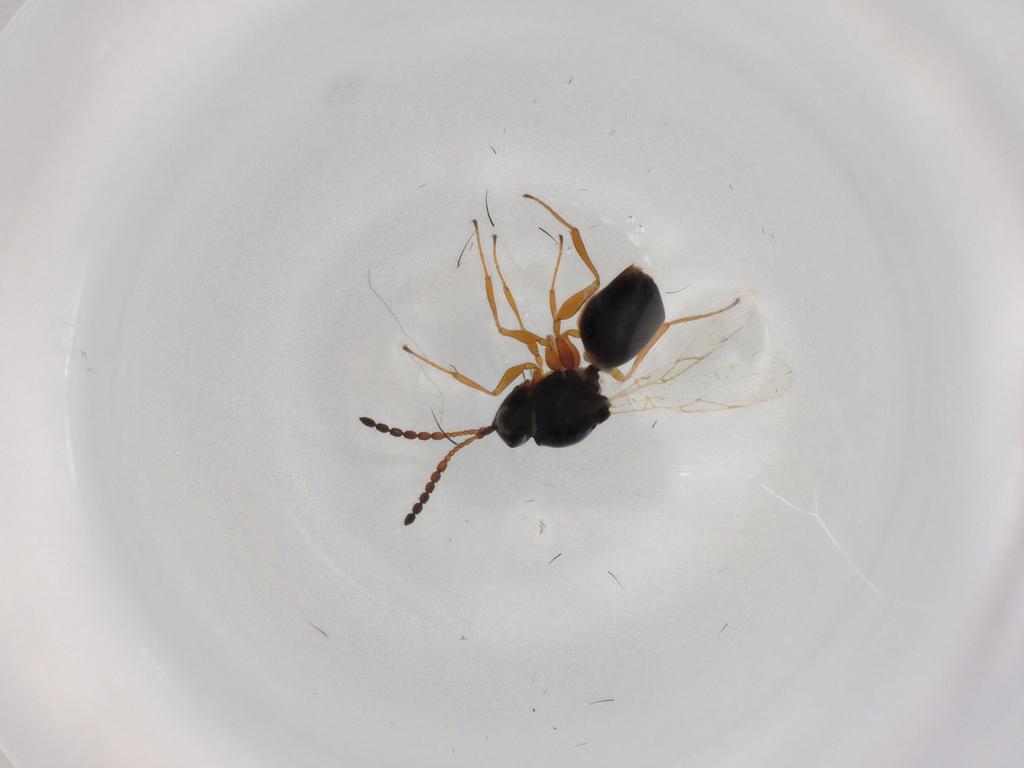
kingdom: Animalia
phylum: Arthropoda
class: Insecta
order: Hymenoptera
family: Figitidae
